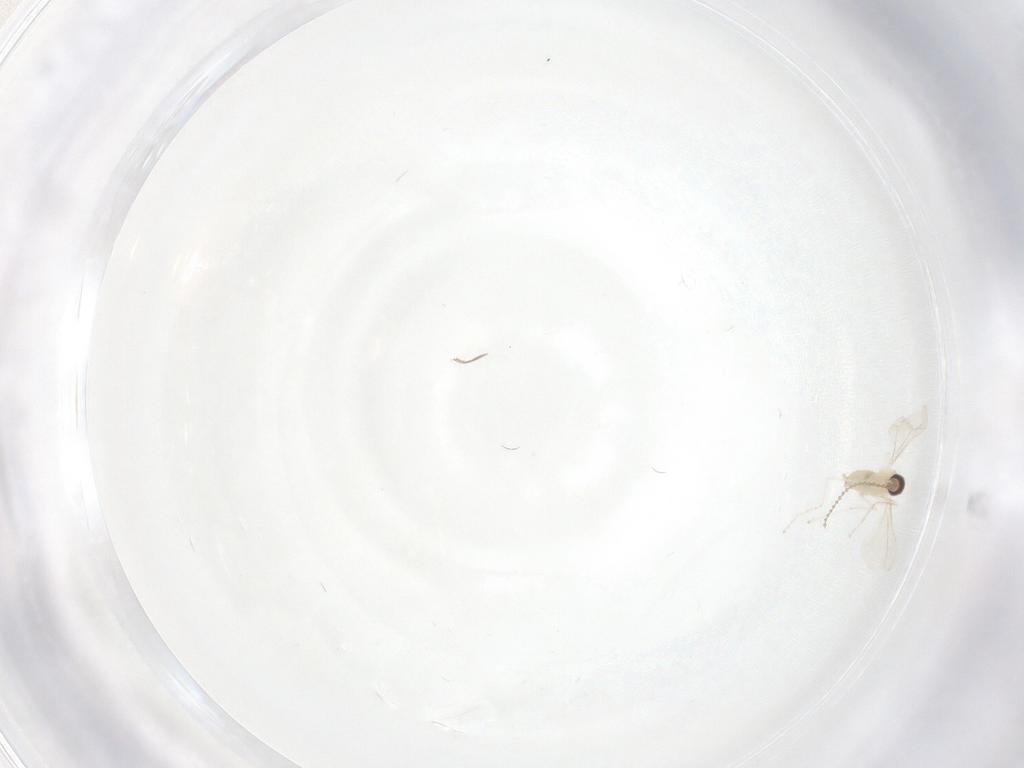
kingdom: Animalia
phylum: Arthropoda
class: Insecta
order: Diptera
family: Cecidomyiidae
